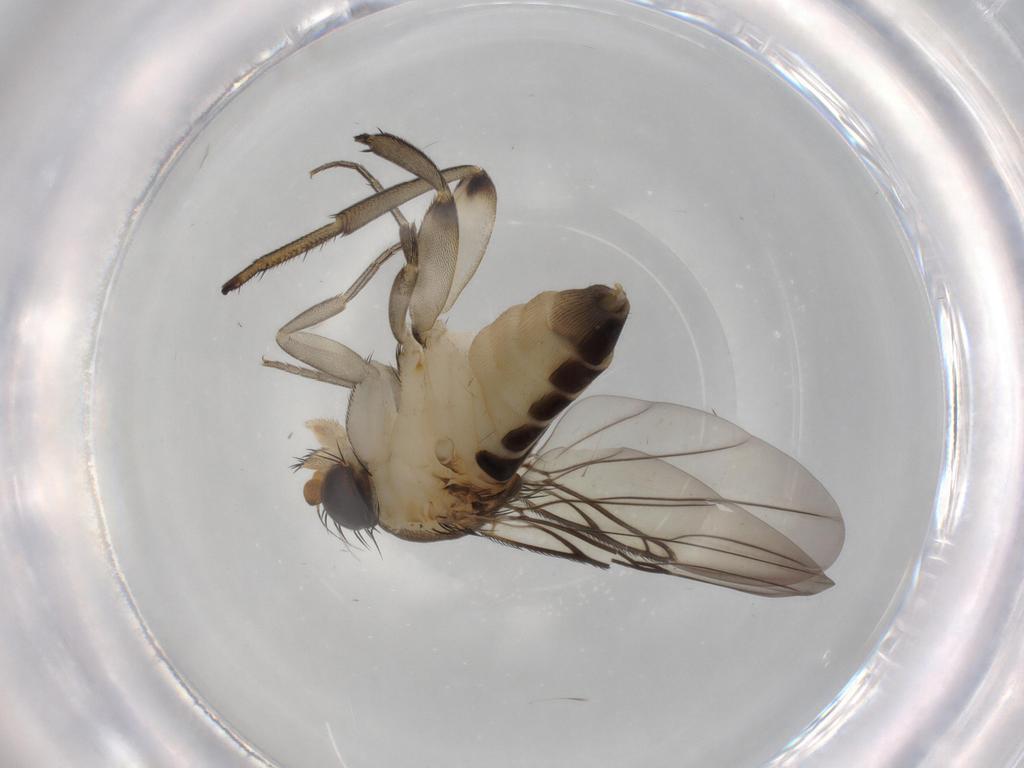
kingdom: Animalia
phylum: Arthropoda
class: Insecta
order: Diptera
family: Phoridae
